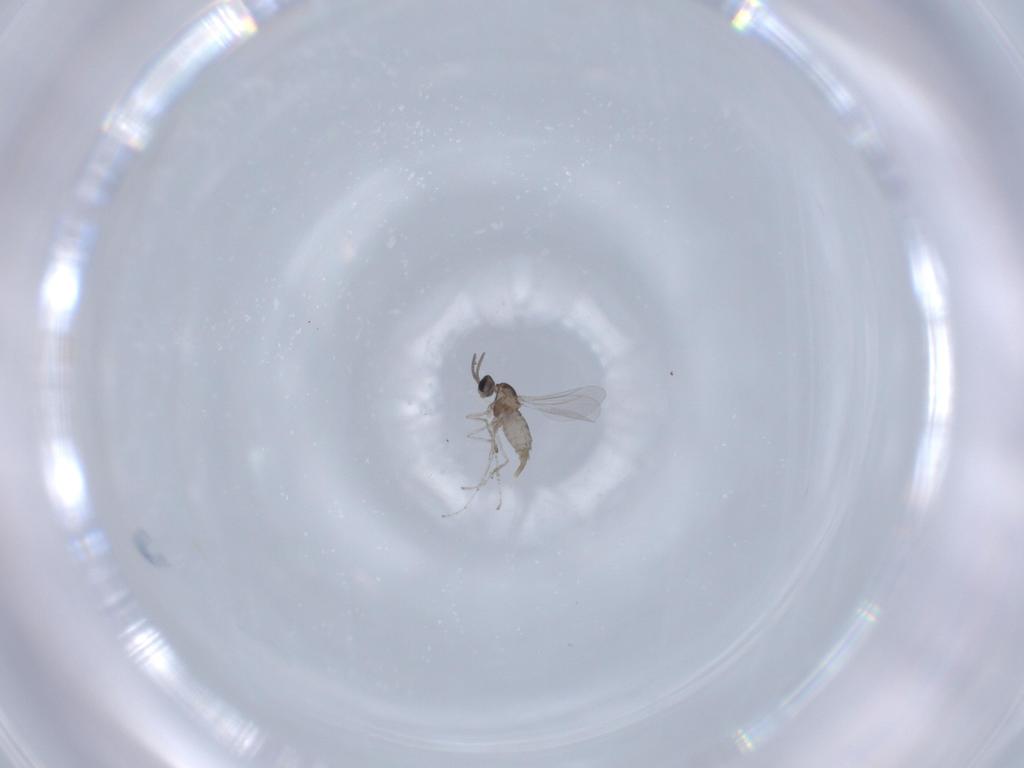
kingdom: Animalia
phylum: Arthropoda
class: Insecta
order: Diptera
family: Cecidomyiidae
